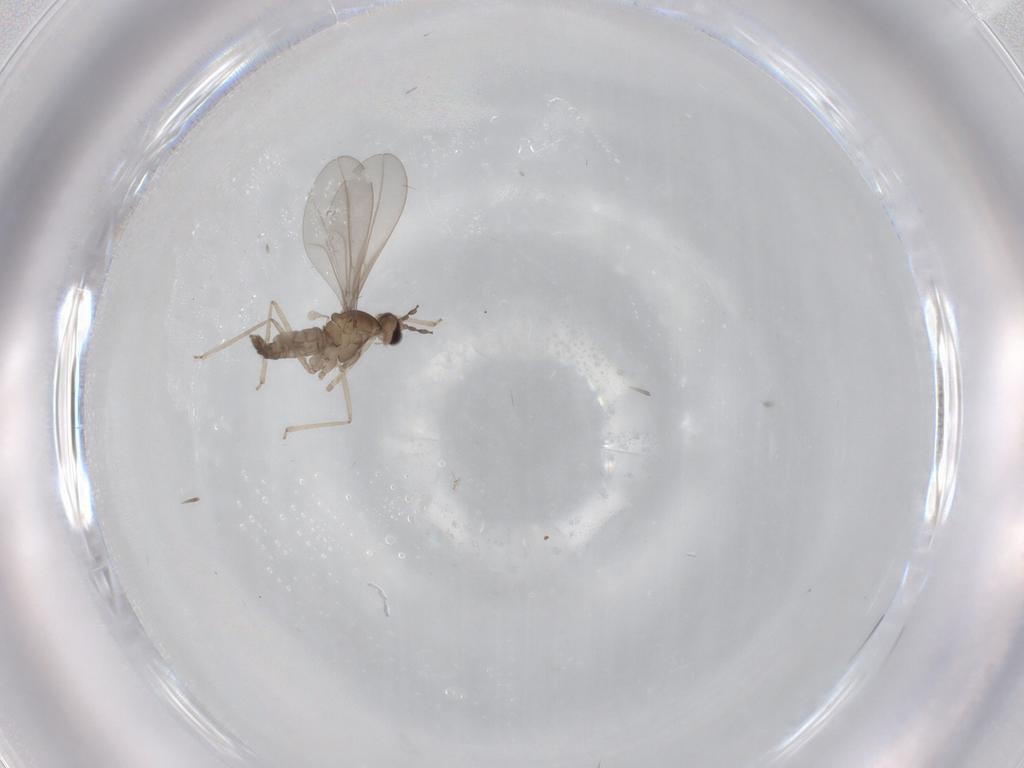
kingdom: Animalia
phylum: Arthropoda
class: Insecta
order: Diptera
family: Cecidomyiidae
